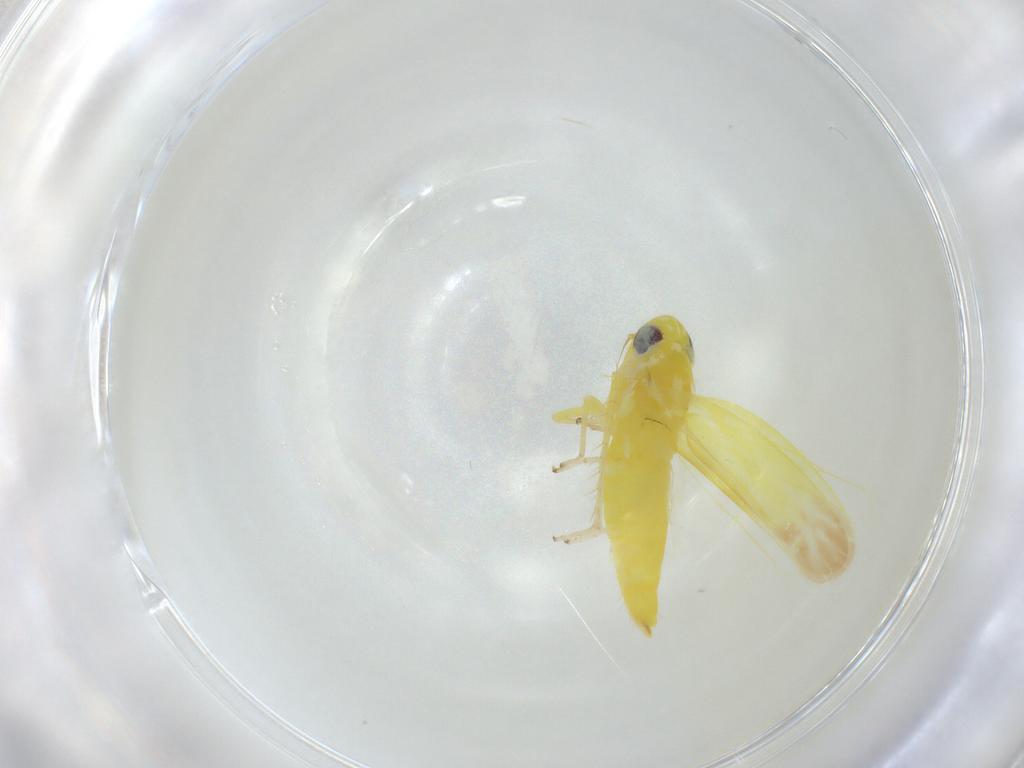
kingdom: Animalia
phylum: Arthropoda
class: Insecta
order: Hemiptera
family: Cicadellidae
